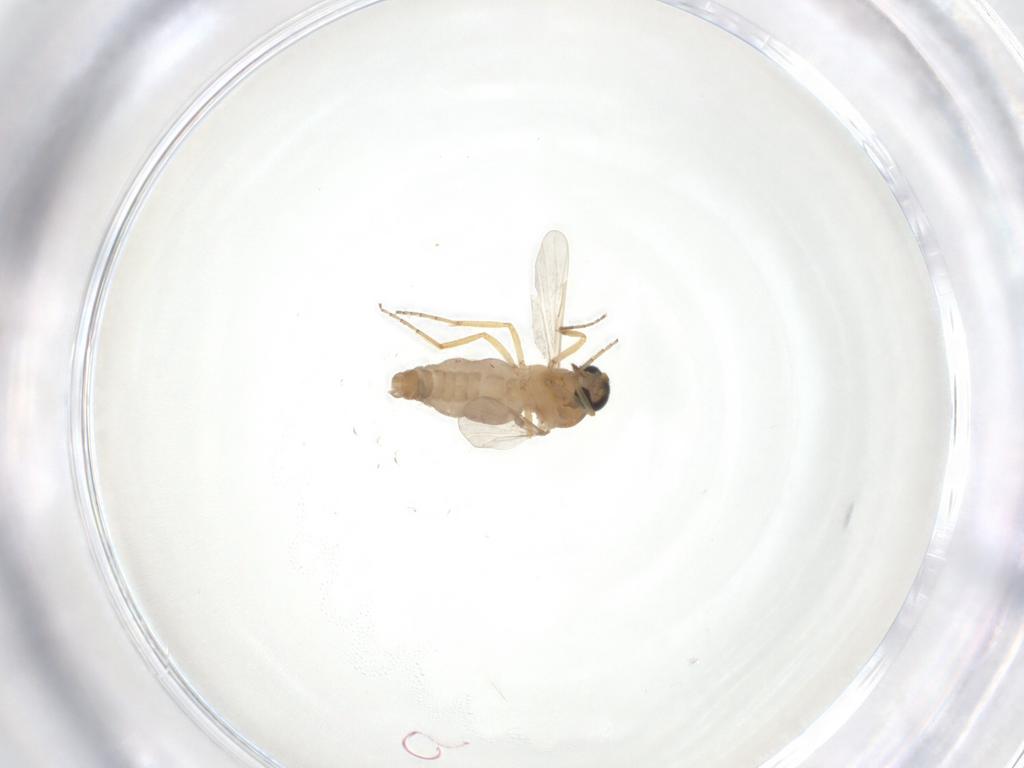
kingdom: Animalia
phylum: Arthropoda
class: Insecta
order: Diptera
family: Ceratopogonidae
